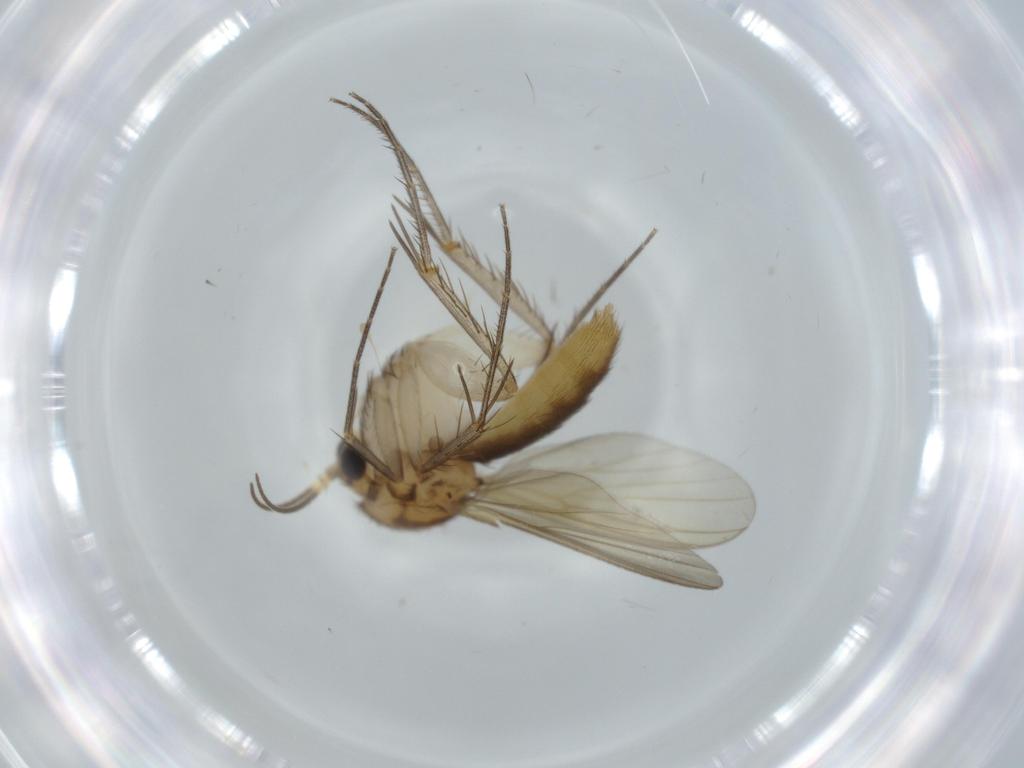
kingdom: Animalia
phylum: Arthropoda
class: Insecta
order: Diptera
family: Mycetophilidae
